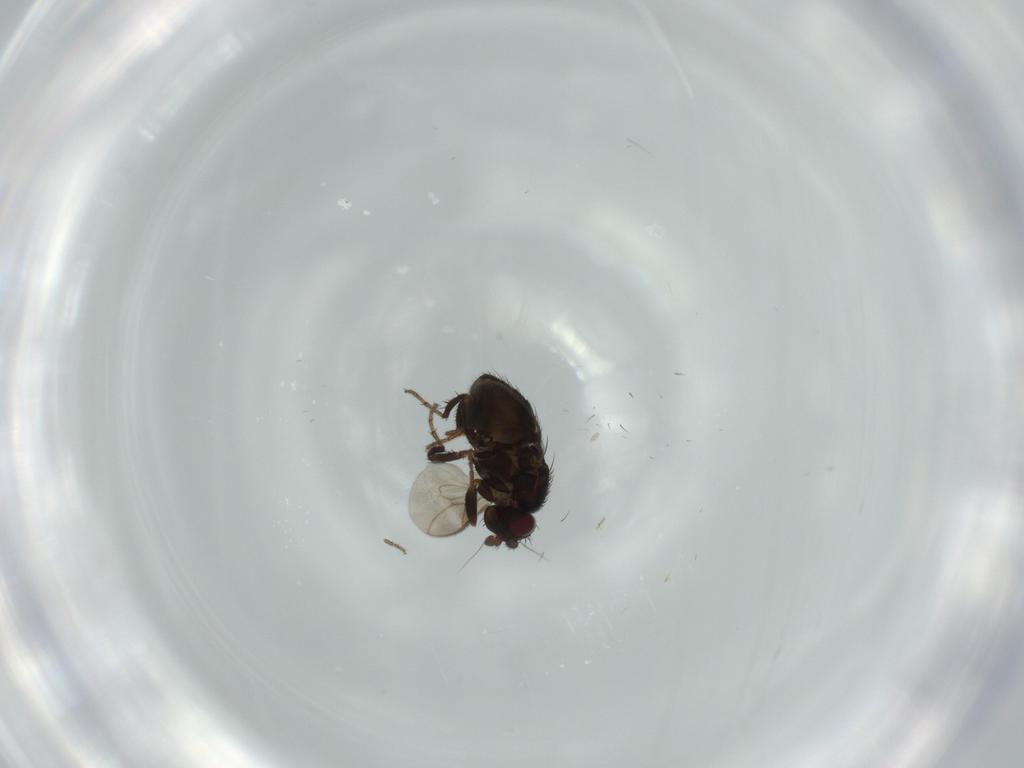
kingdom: Animalia
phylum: Arthropoda
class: Insecta
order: Diptera
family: Sphaeroceridae
